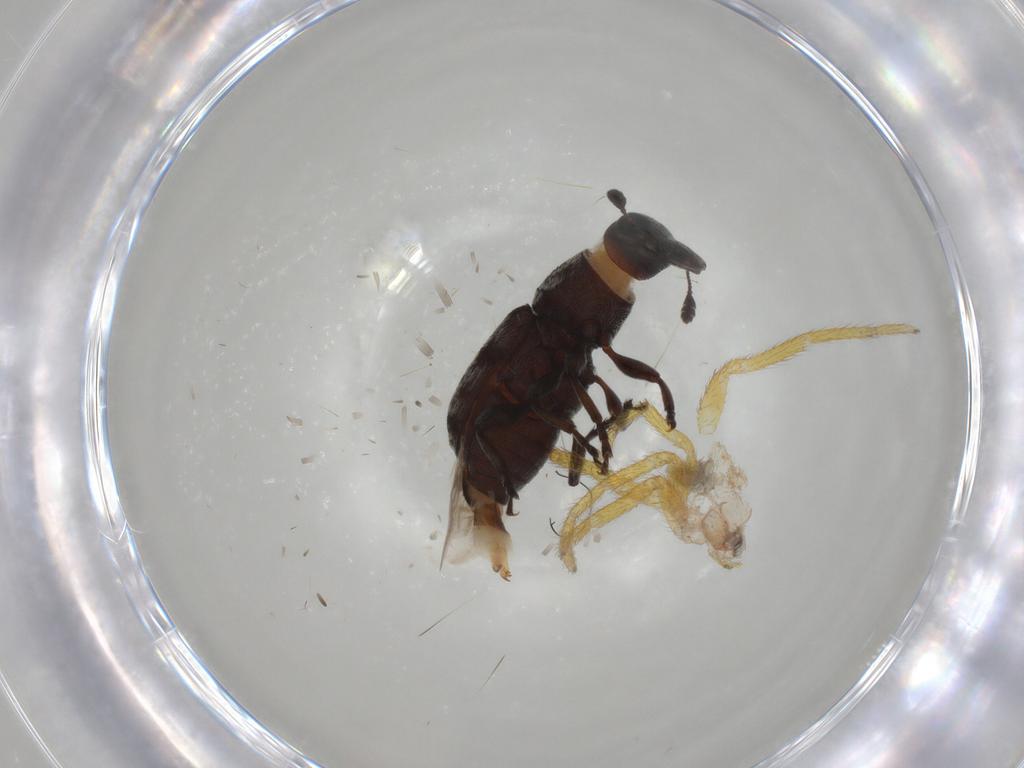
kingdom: Animalia
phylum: Arthropoda
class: Insecta
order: Coleoptera
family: Anthribidae
